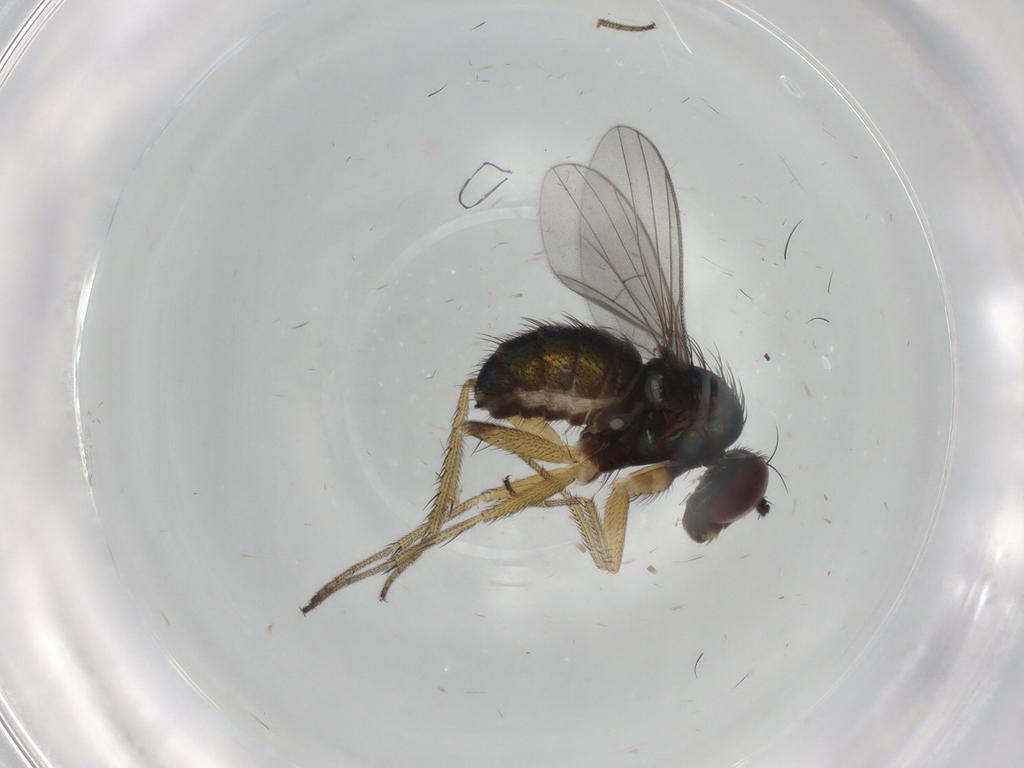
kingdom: Animalia
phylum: Arthropoda
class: Insecta
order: Diptera
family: Dolichopodidae
